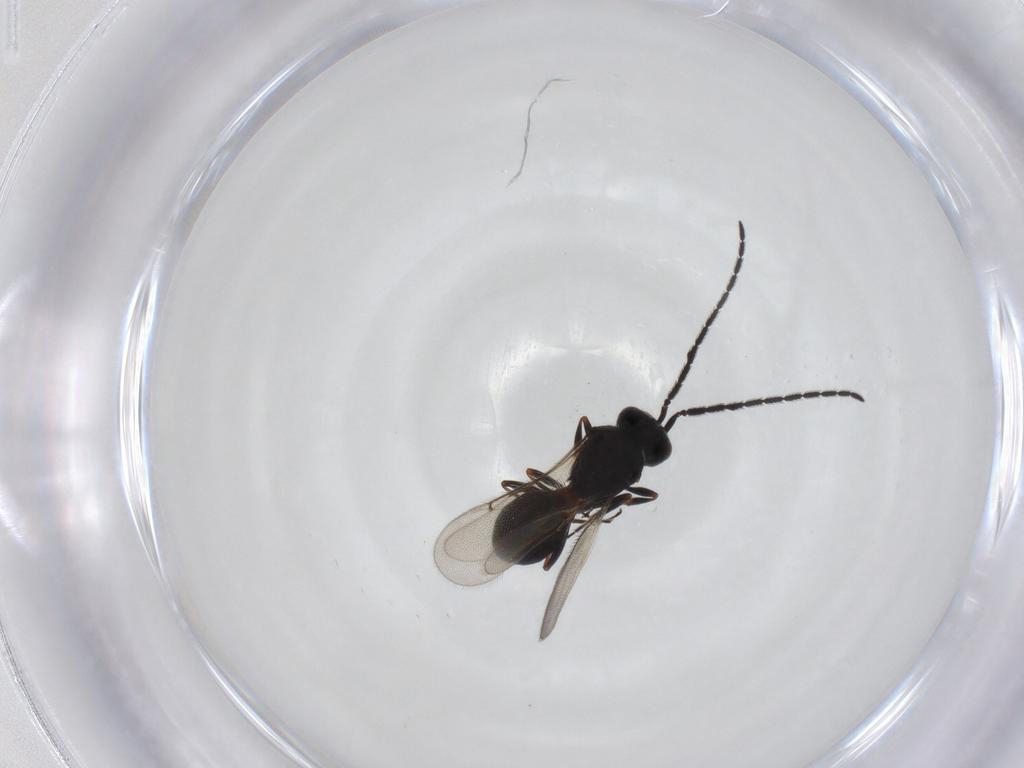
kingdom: Animalia
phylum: Arthropoda
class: Insecta
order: Hymenoptera
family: Scelionidae
